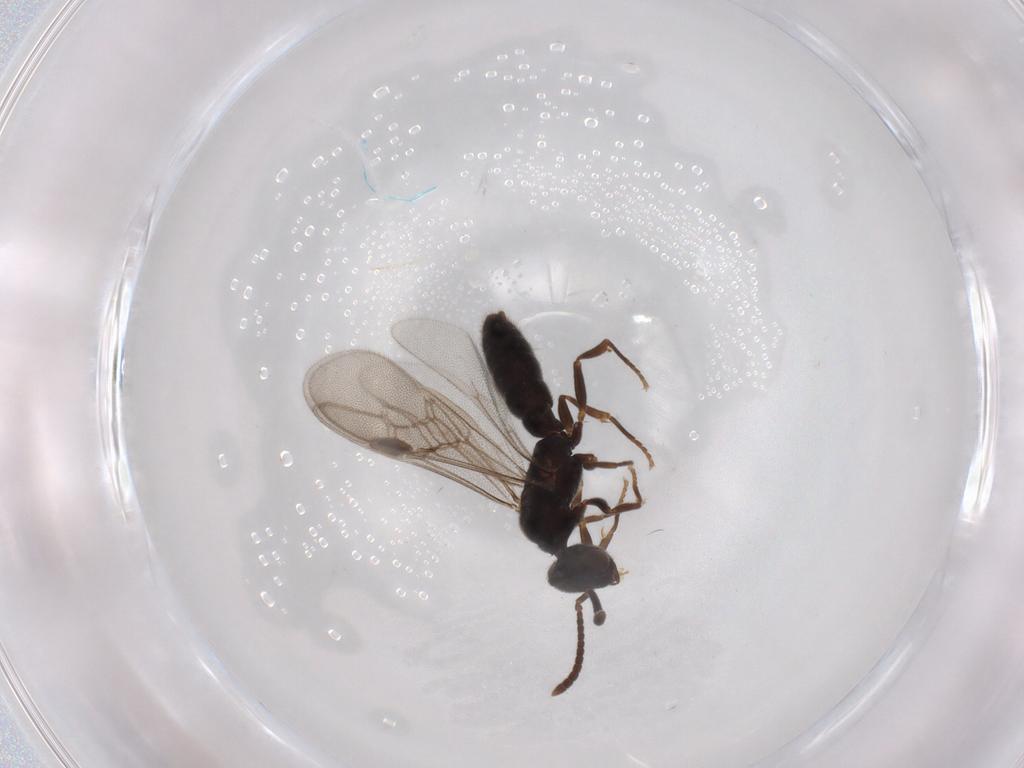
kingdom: Animalia
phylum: Arthropoda
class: Insecta
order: Hymenoptera
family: Formicidae
